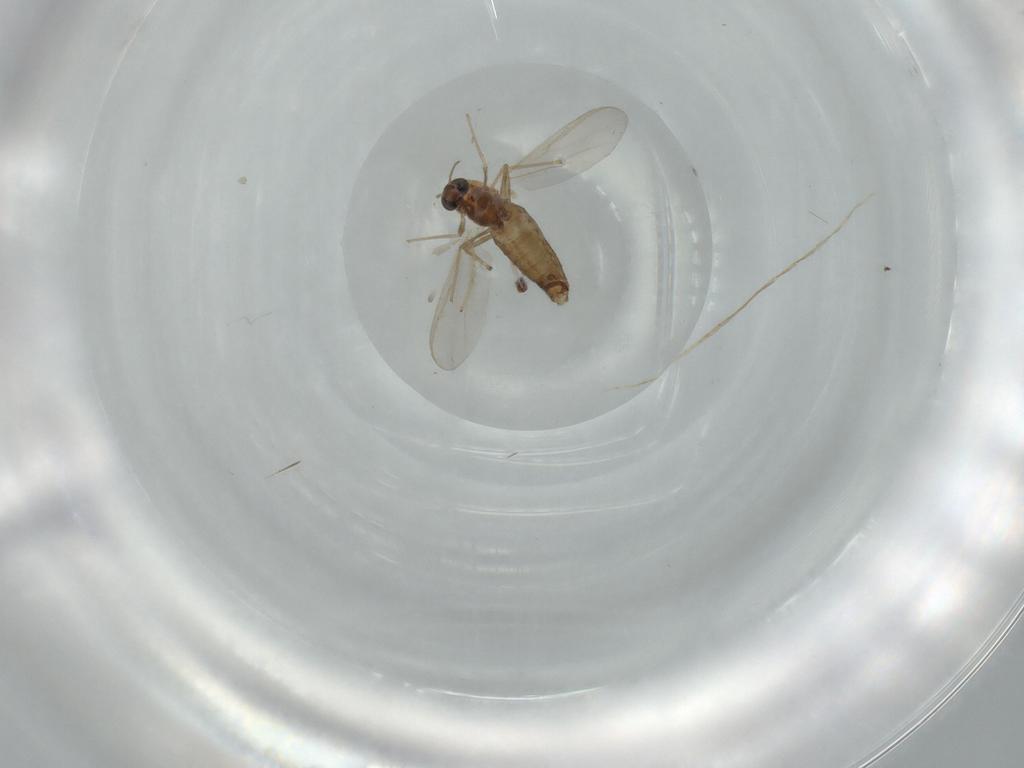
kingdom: Animalia
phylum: Arthropoda
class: Insecta
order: Diptera
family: Chironomidae
